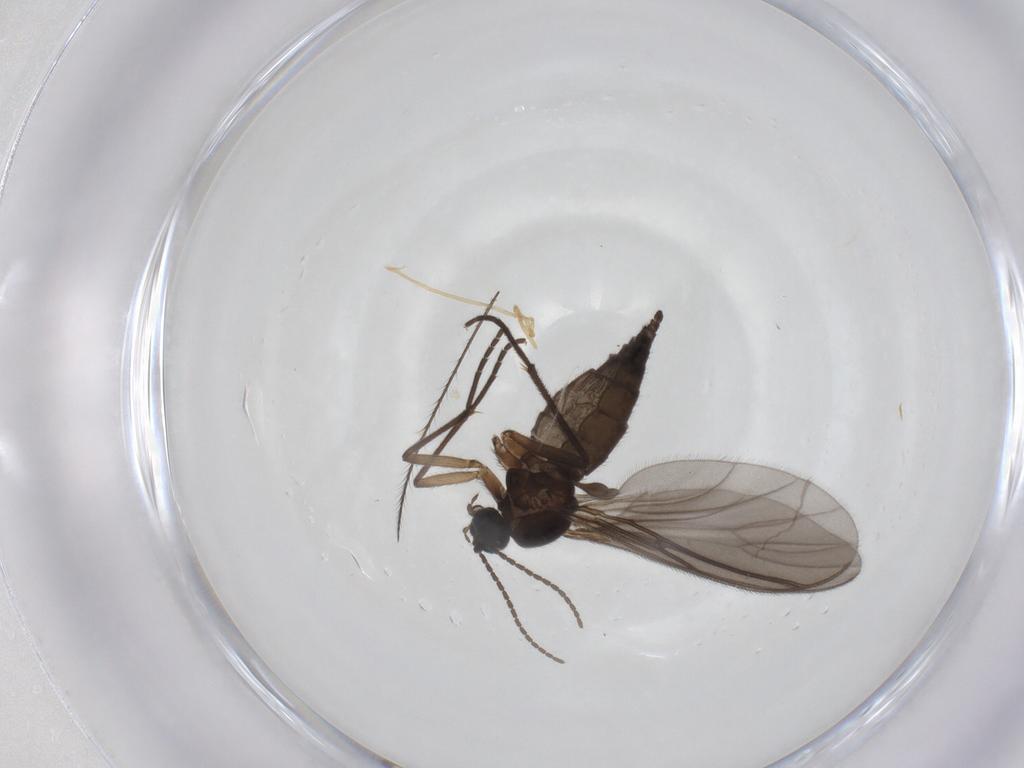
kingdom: Animalia
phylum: Arthropoda
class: Insecta
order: Diptera
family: Sciaridae
